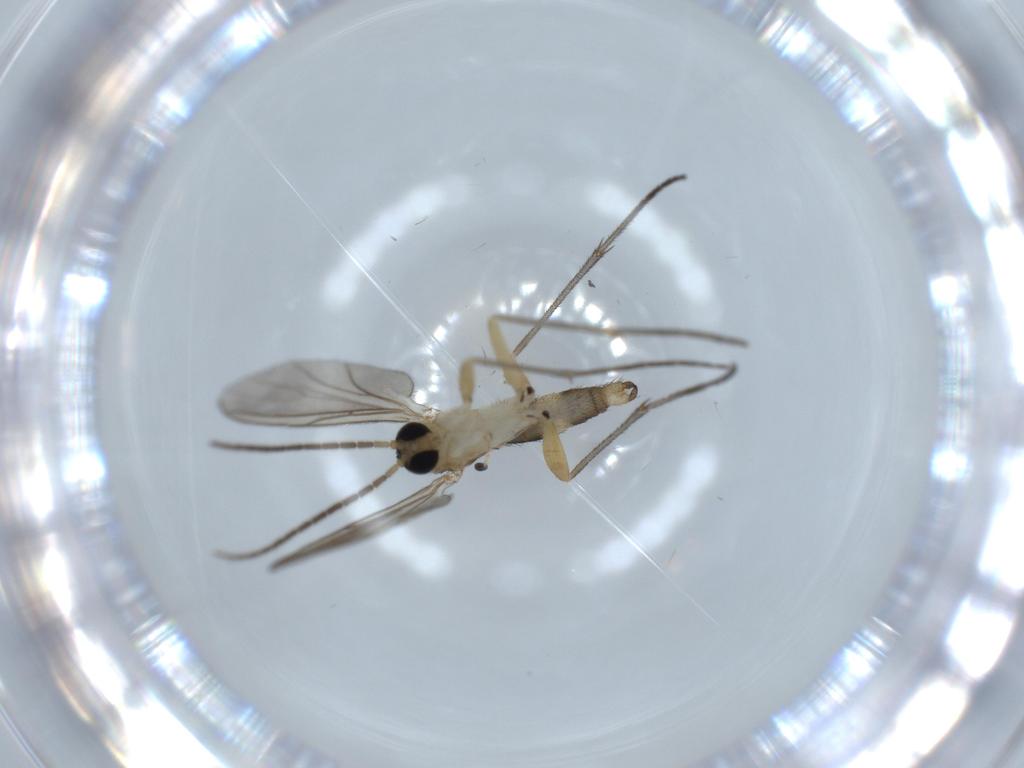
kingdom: Animalia
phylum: Arthropoda
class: Insecta
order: Diptera
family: Sciaridae
